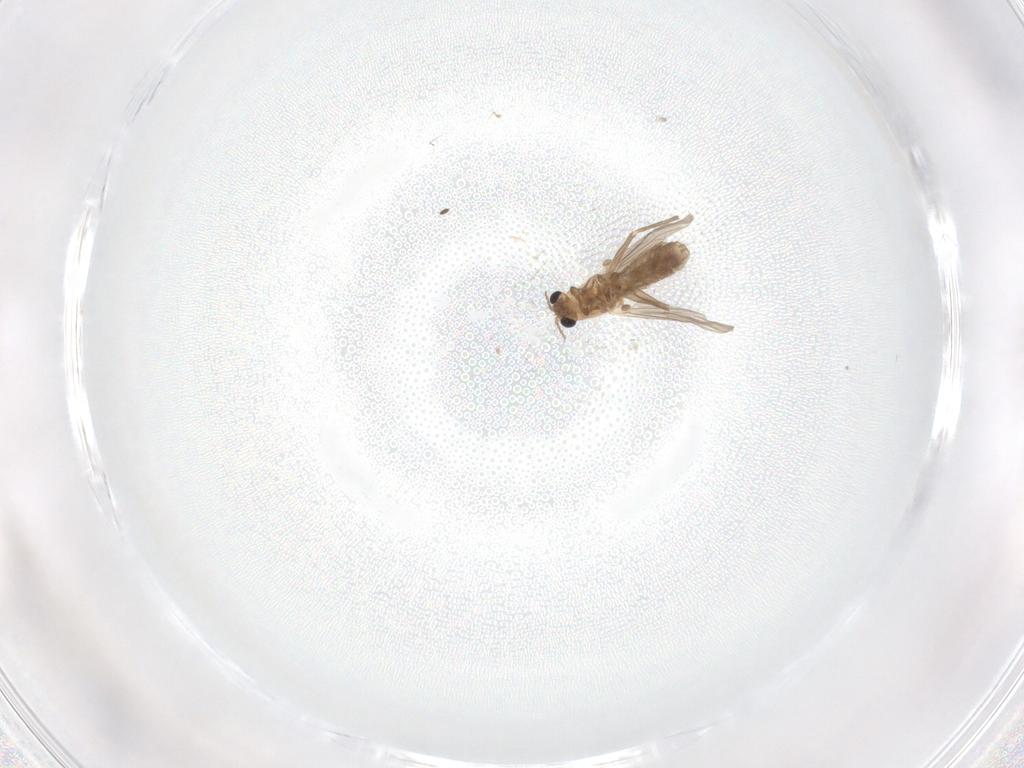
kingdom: Animalia
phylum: Arthropoda
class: Insecta
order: Diptera
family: Chironomidae
